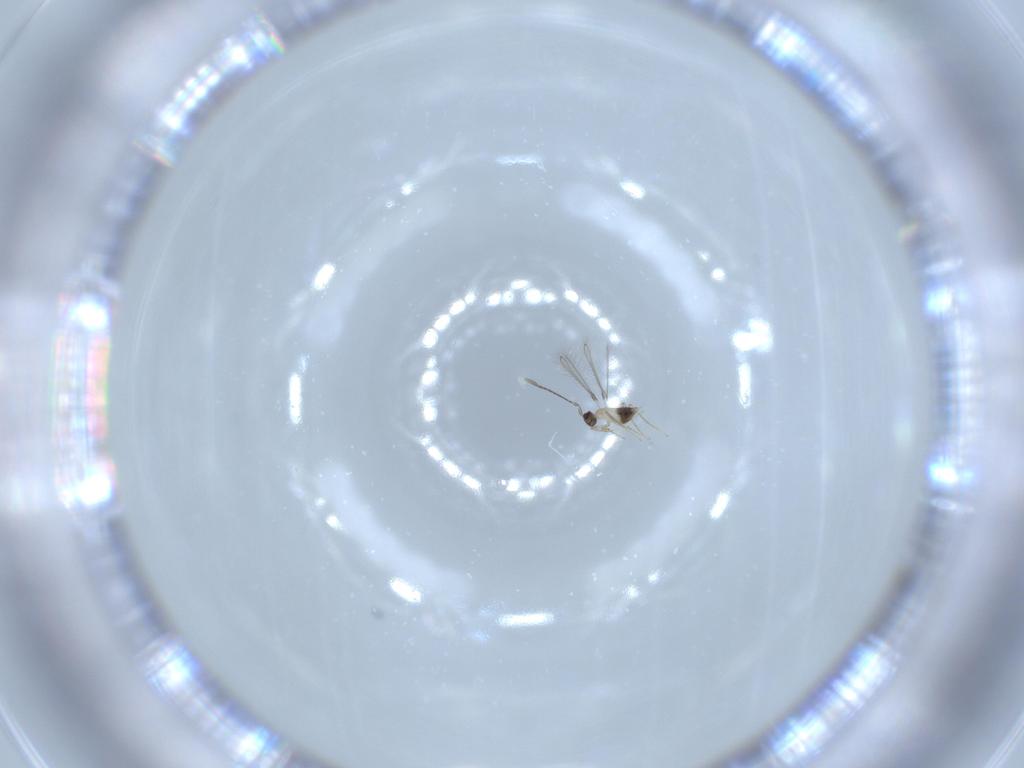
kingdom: Animalia
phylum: Arthropoda
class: Insecta
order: Hymenoptera
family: Mymaridae
